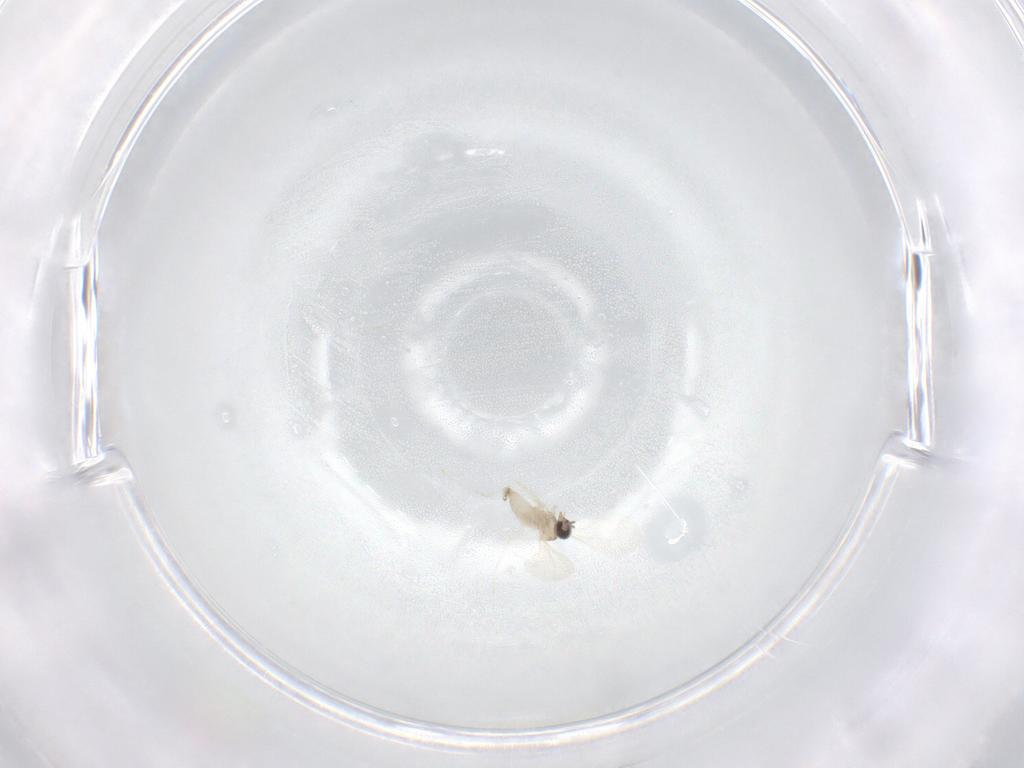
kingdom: Animalia
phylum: Arthropoda
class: Insecta
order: Diptera
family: Cecidomyiidae
